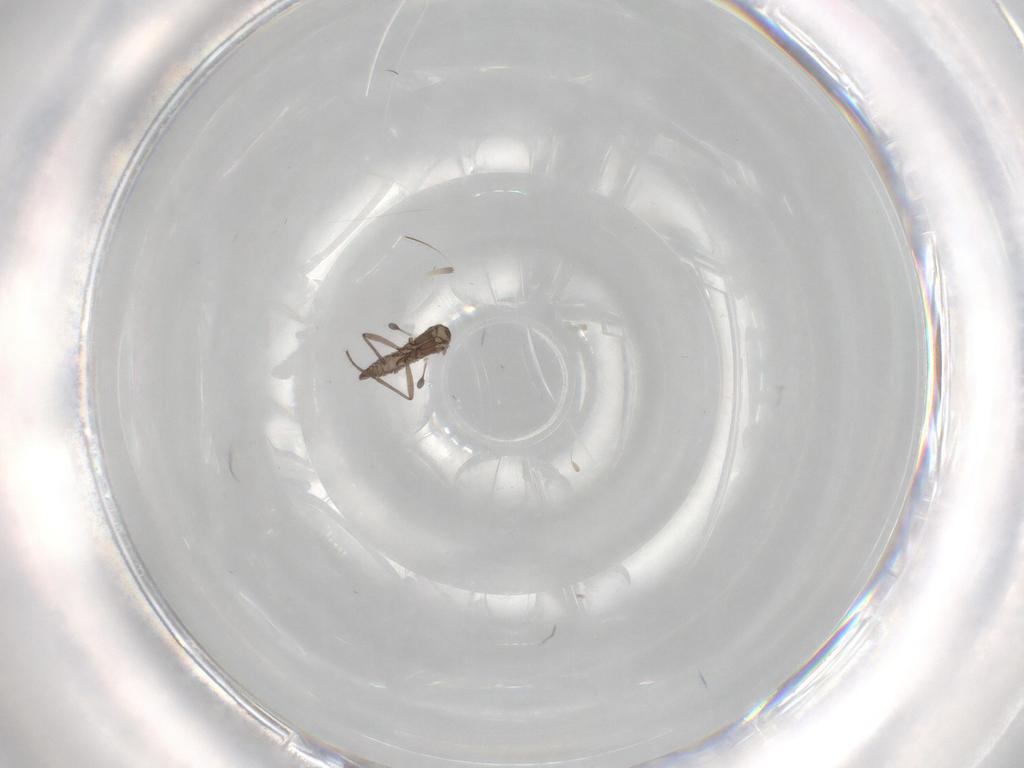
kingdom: Animalia
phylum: Arthropoda
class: Insecta
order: Diptera
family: Sciaridae
